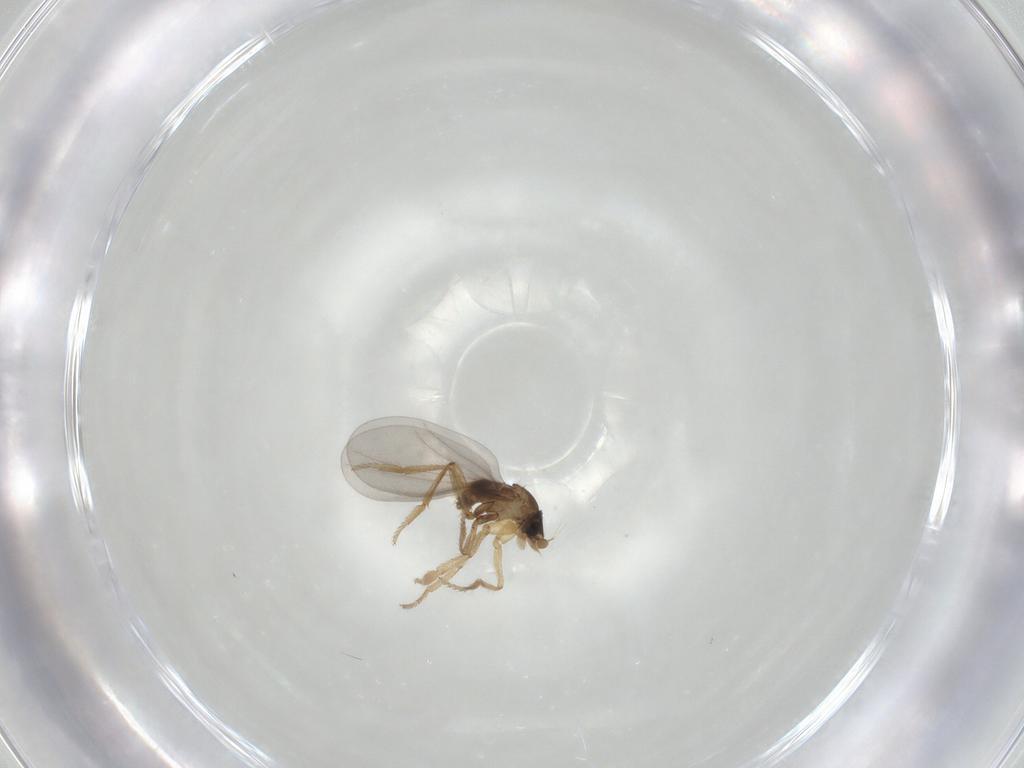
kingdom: Animalia
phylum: Arthropoda
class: Insecta
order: Diptera
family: Phoridae
